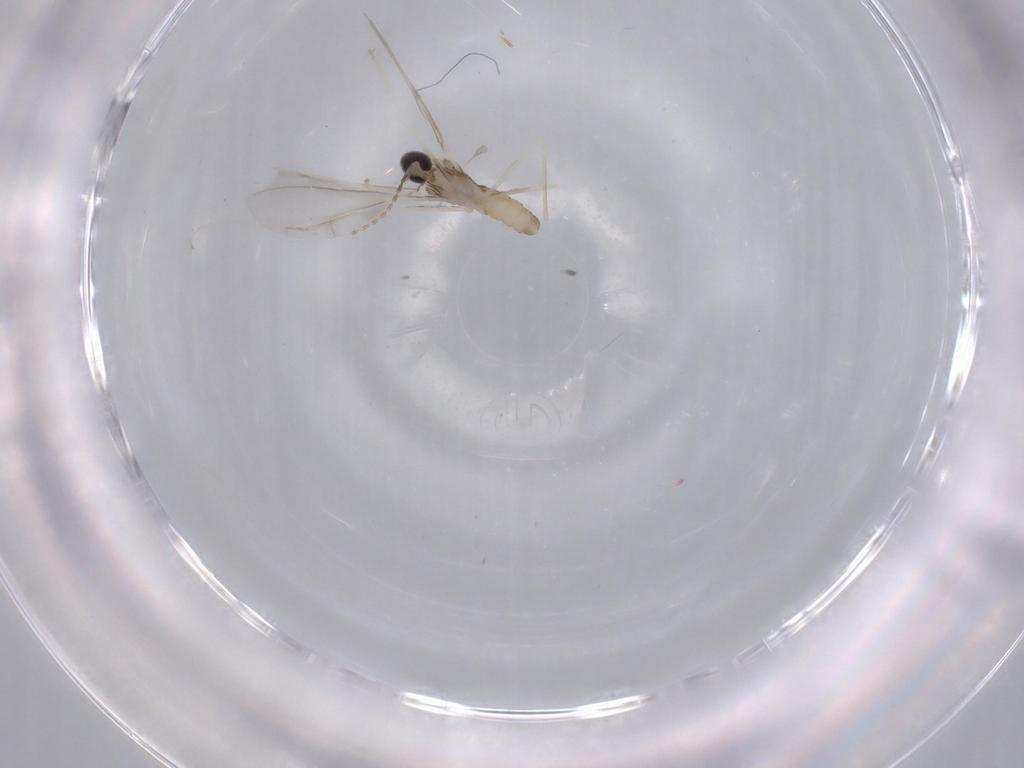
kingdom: Animalia
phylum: Arthropoda
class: Insecta
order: Diptera
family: Cecidomyiidae
